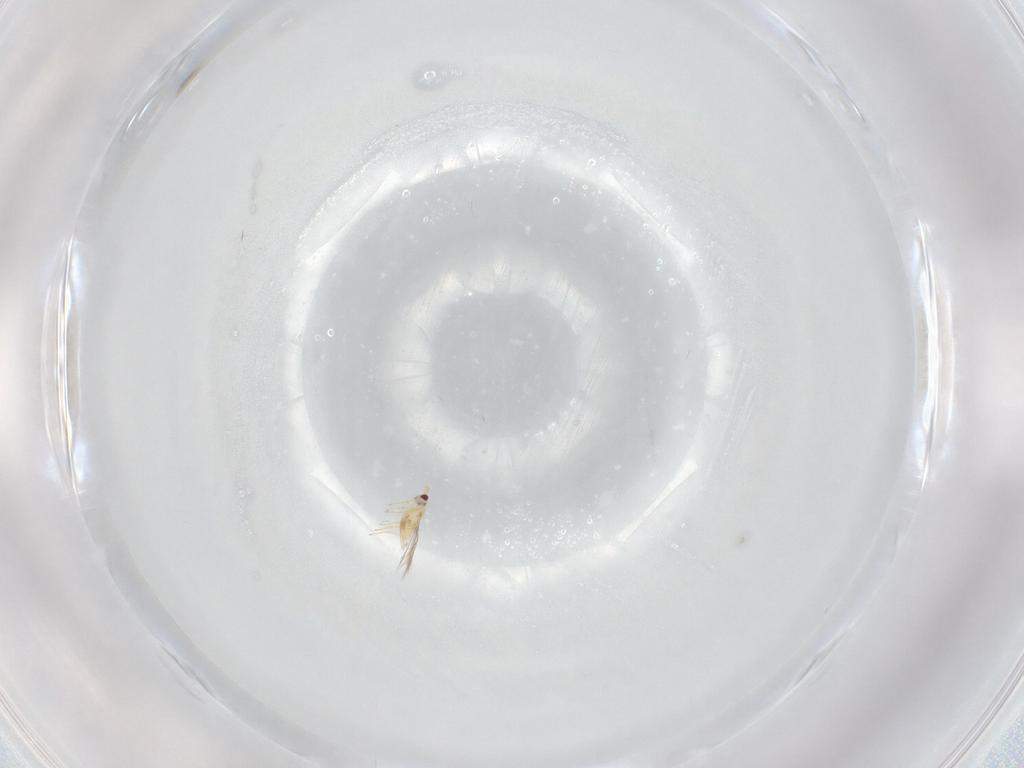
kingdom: Animalia
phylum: Arthropoda
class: Insecta
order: Hymenoptera
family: Mymaridae
